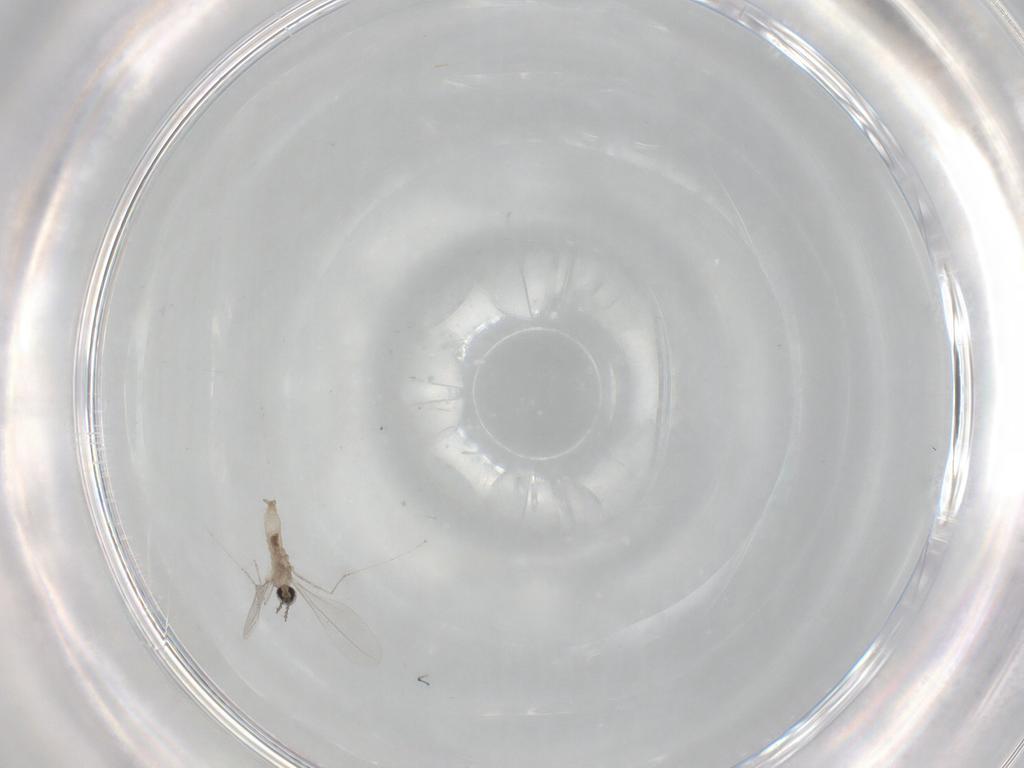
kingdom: Animalia
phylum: Arthropoda
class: Insecta
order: Diptera
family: Cecidomyiidae
